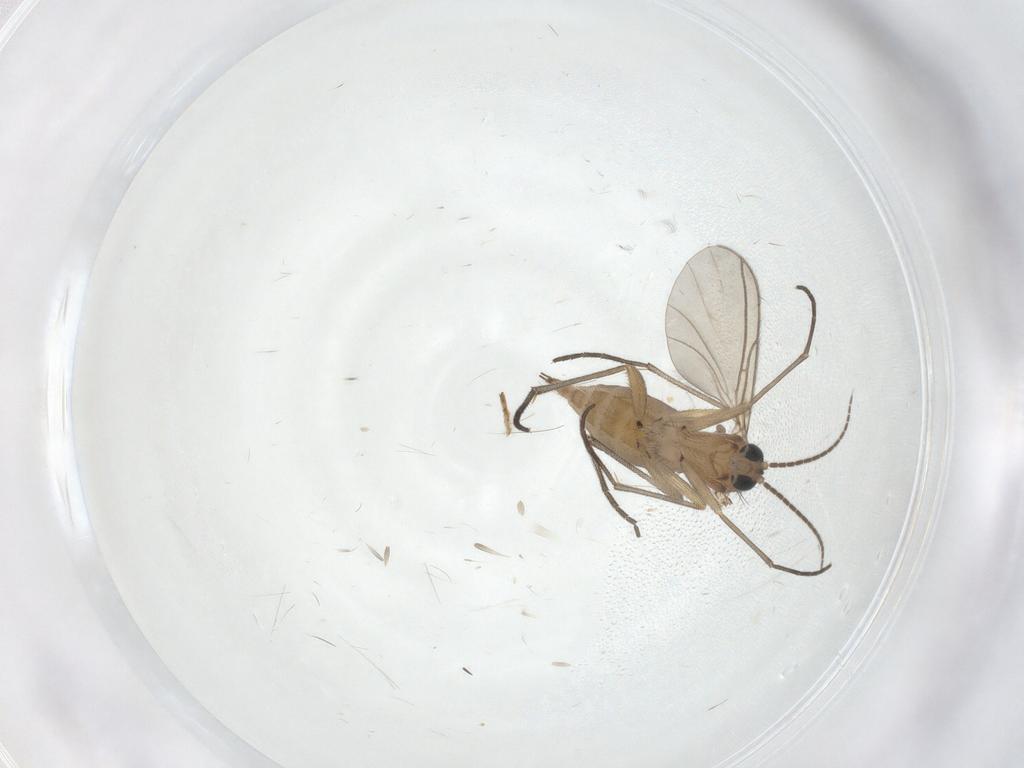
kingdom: Animalia
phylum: Arthropoda
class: Insecta
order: Diptera
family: Sciaridae
